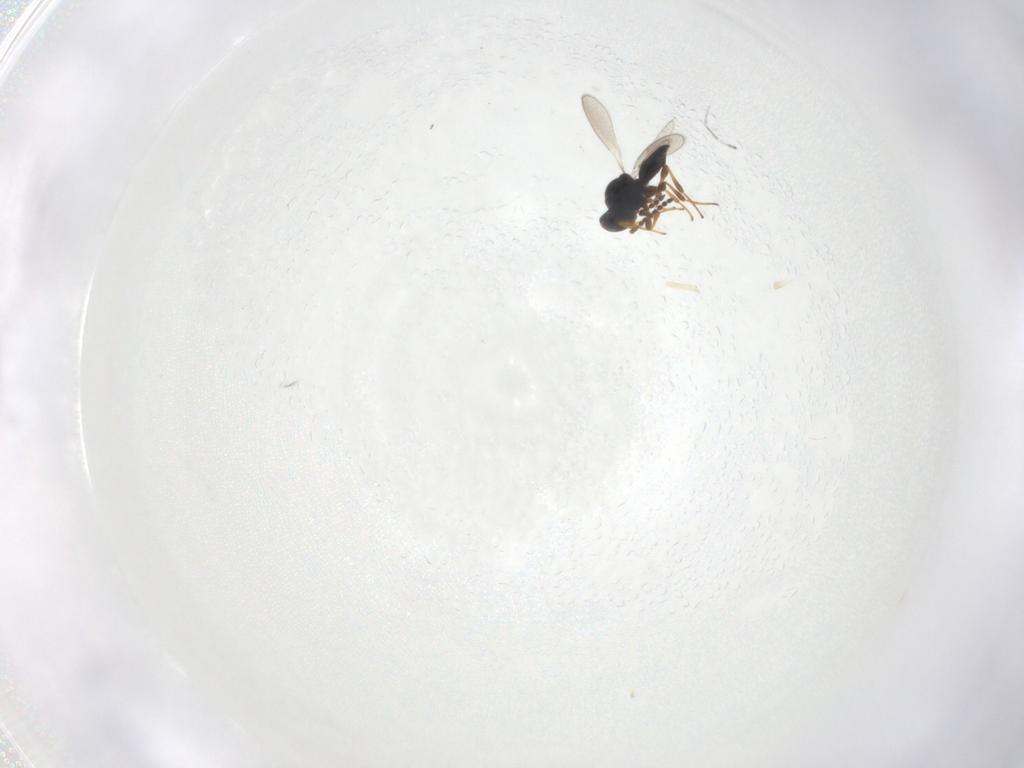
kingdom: Animalia
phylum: Arthropoda
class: Insecta
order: Hymenoptera
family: Platygastridae
